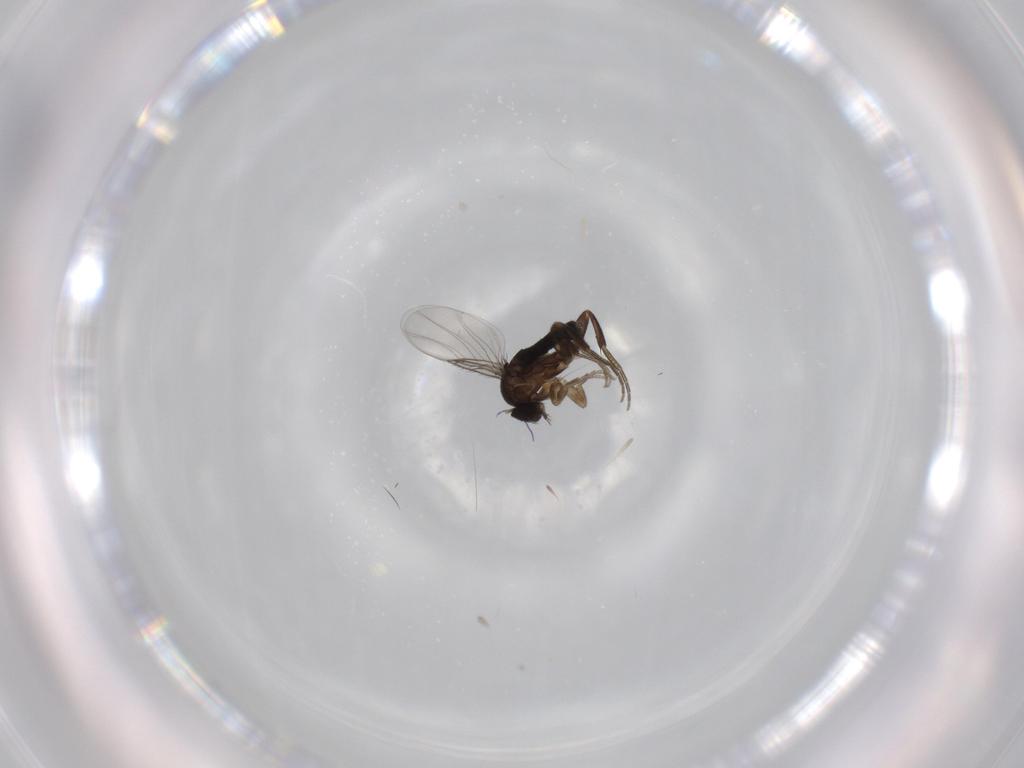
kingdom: Animalia
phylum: Arthropoda
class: Insecta
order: Diptera
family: Phoridae
